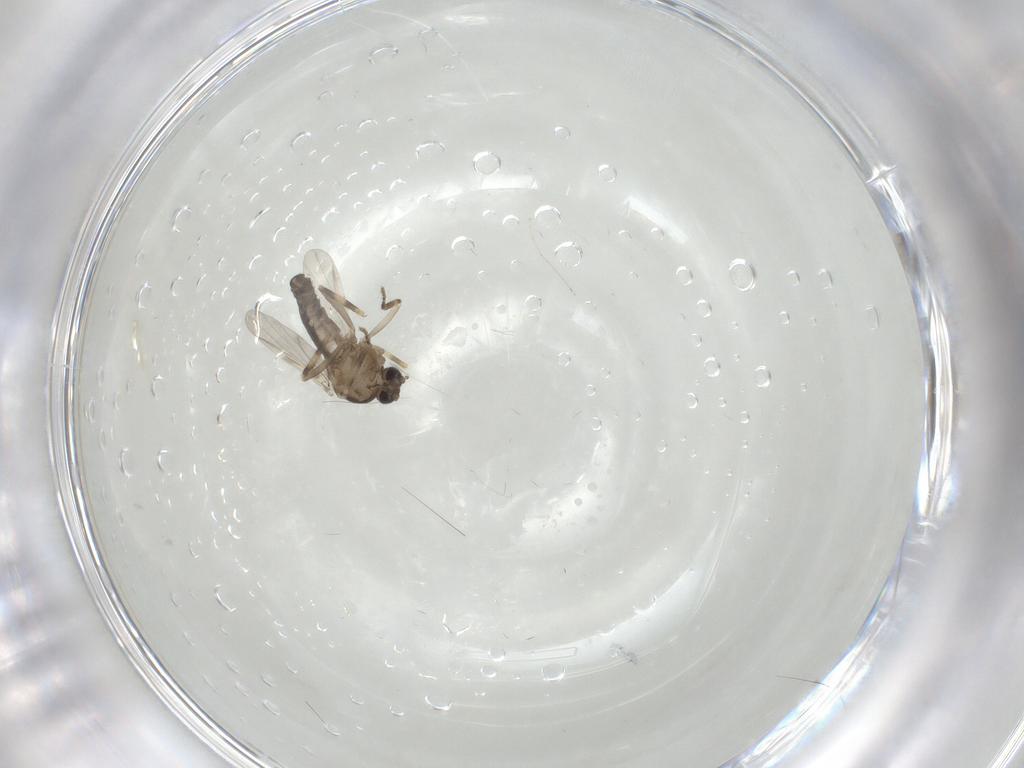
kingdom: Animalia
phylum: Arthropoda
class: Insecta
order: Diptera
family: Ceratopogonidae
